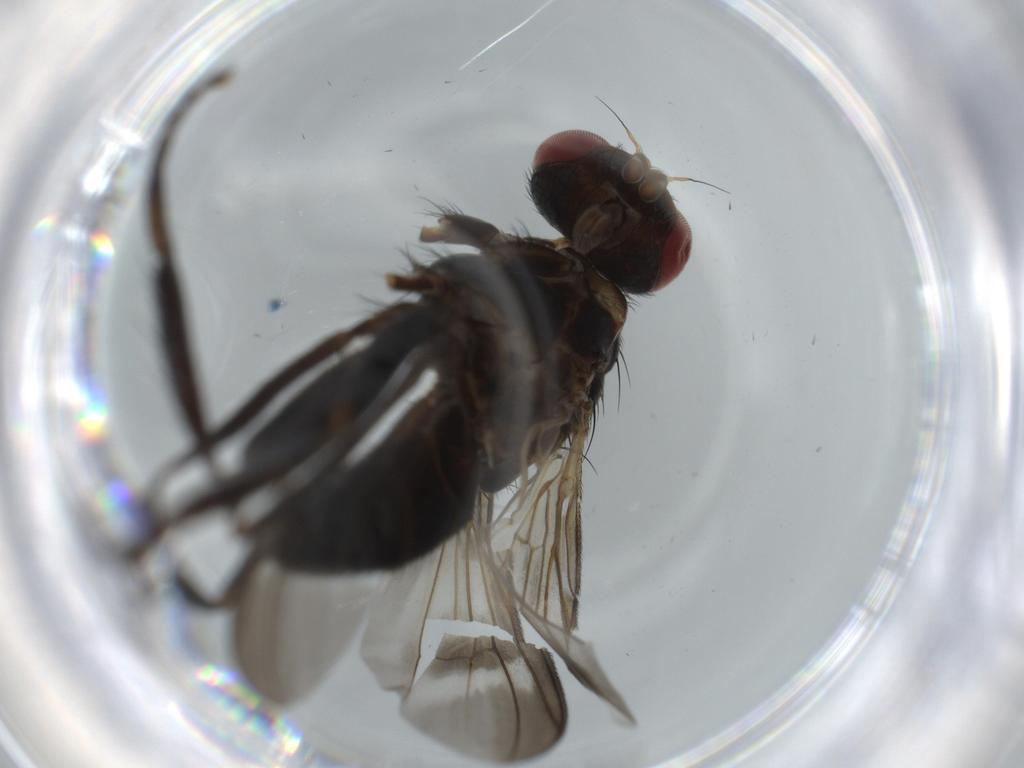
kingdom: Animalia
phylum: Arthropoda
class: Insecta
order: Diptera
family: Calliphoridae
